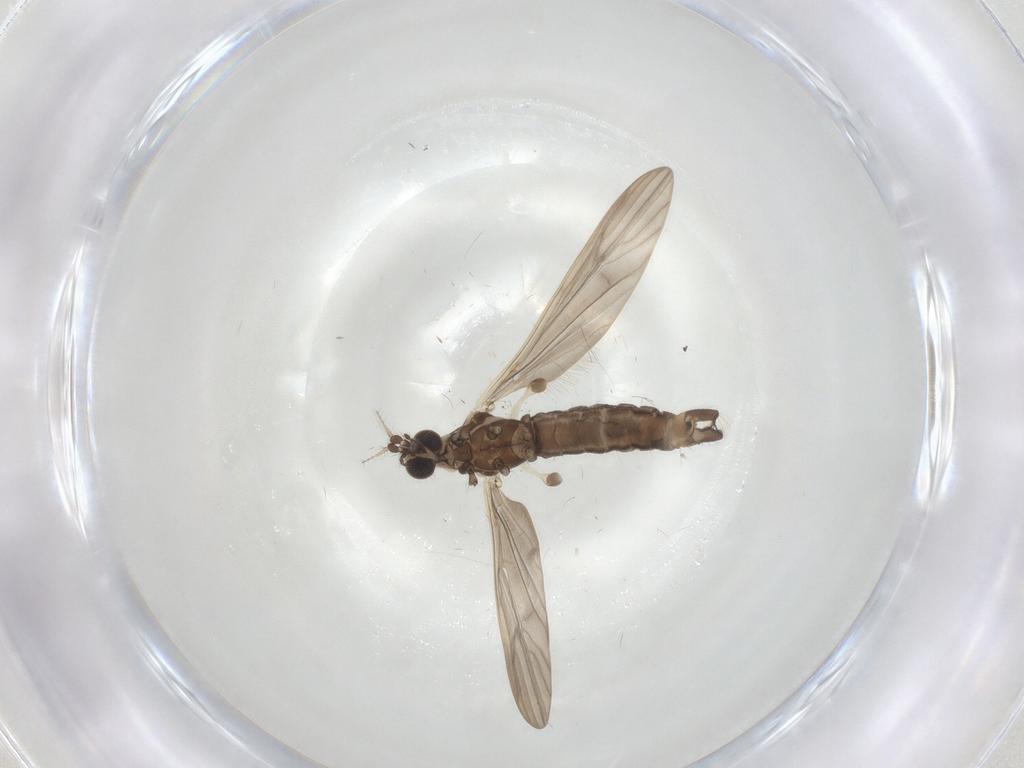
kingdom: Animalia
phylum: Arthropoda
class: Insecta
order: Diptera
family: Limoniidae
